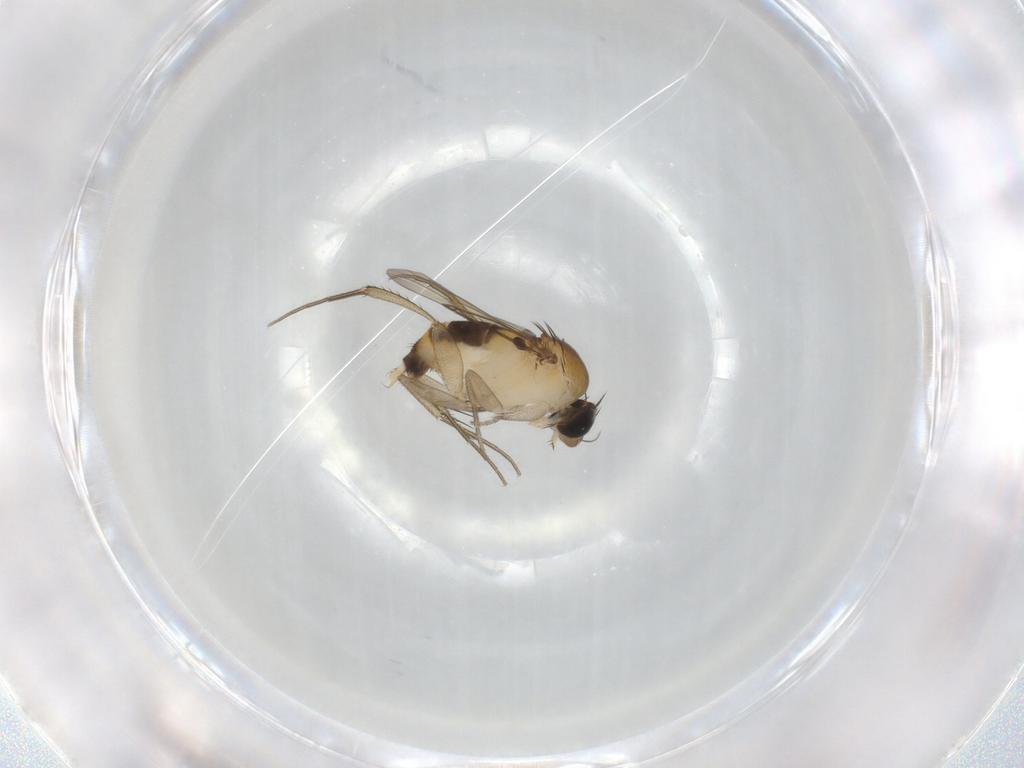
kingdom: Animalia
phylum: Arthropoda
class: Insecta
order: Diptera
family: Phoridae
